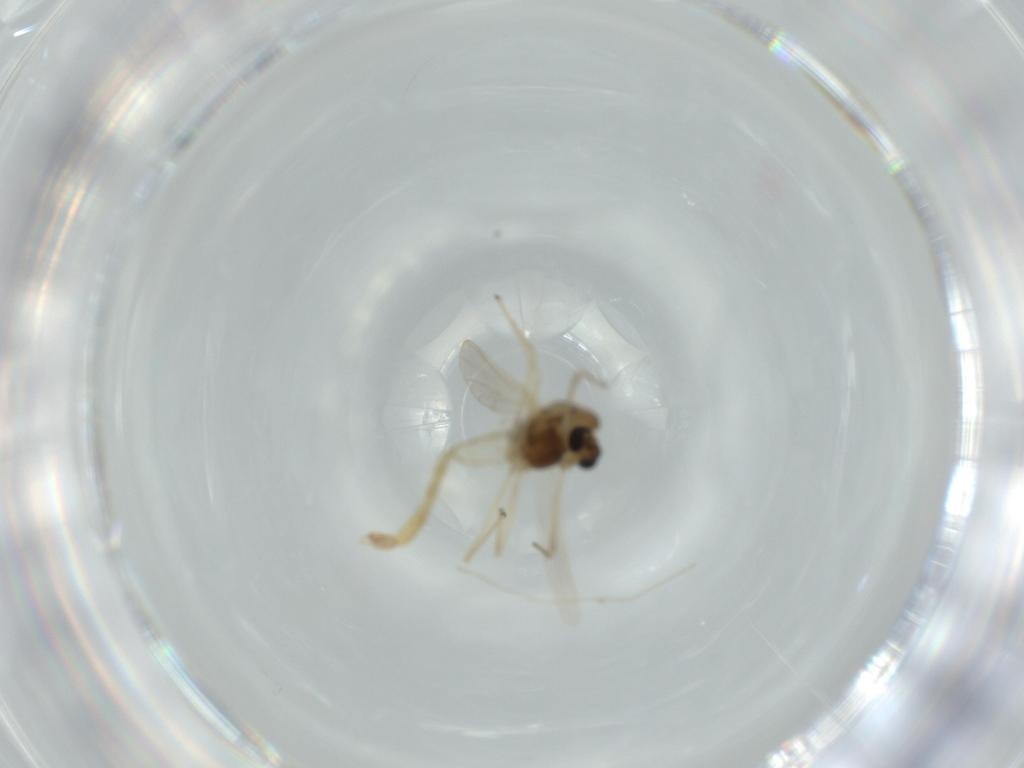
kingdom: Animalia
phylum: Arthropoda
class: Insecta
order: Diptera
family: Chironomidae
